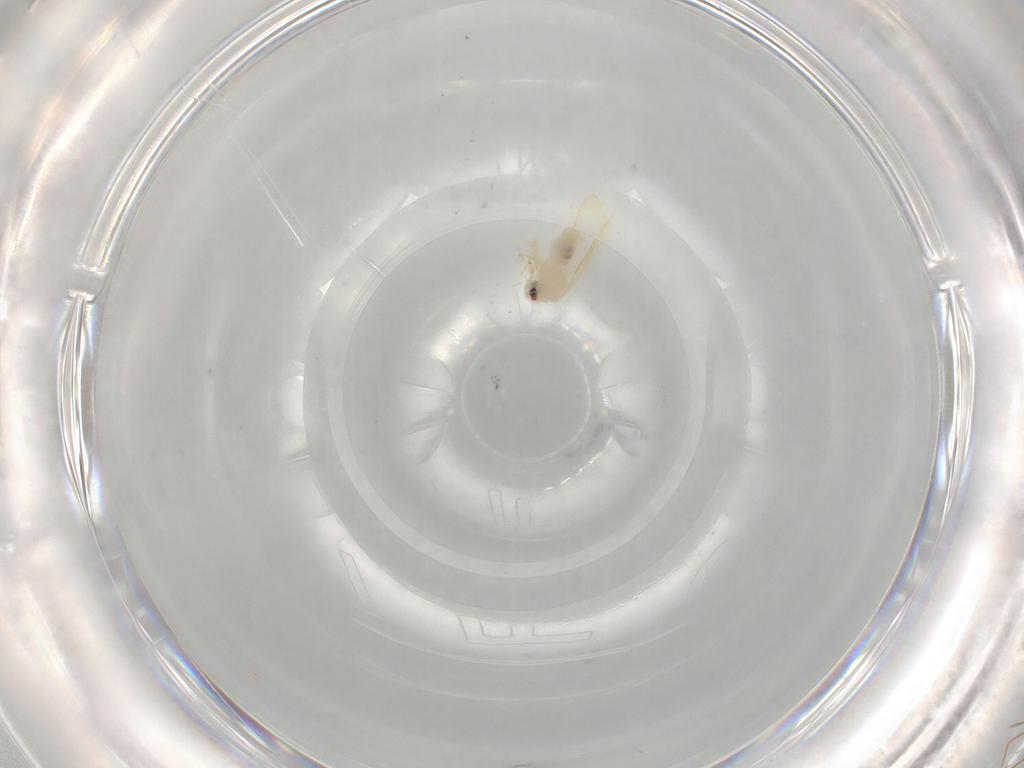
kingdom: Animalia
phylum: Arthropoda
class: Insecta
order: Hemiptera
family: Aleyrodidae
